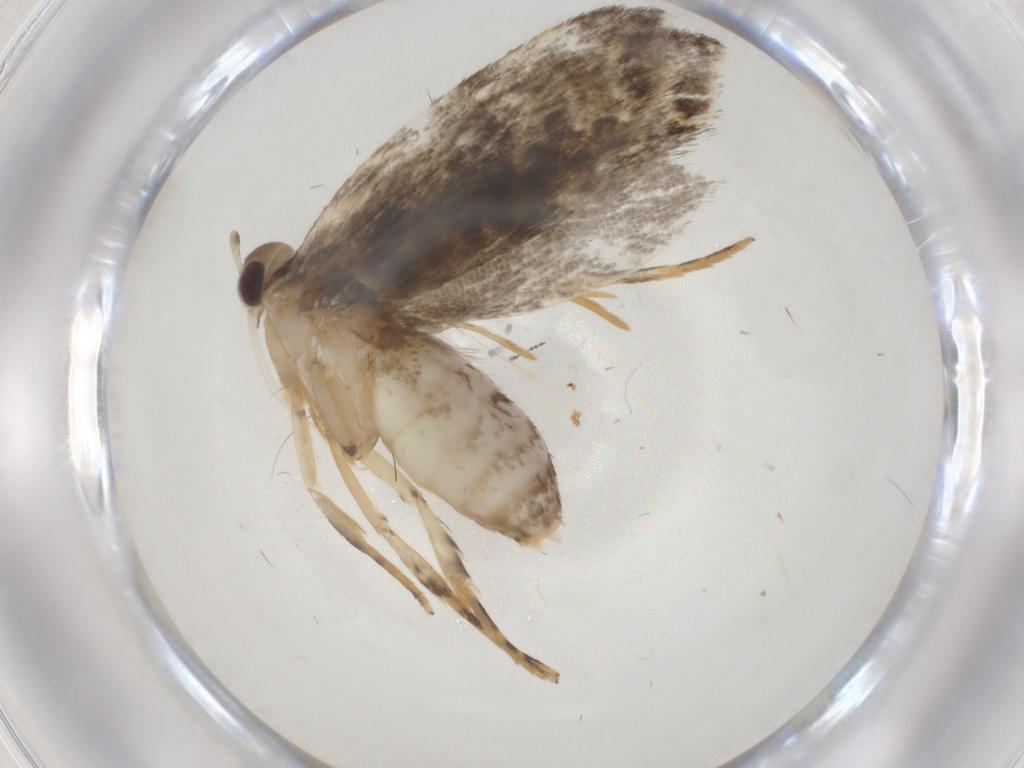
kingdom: Animalia
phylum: Arthropoda
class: Insecta
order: Lepidoptera
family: Gelechiidae
